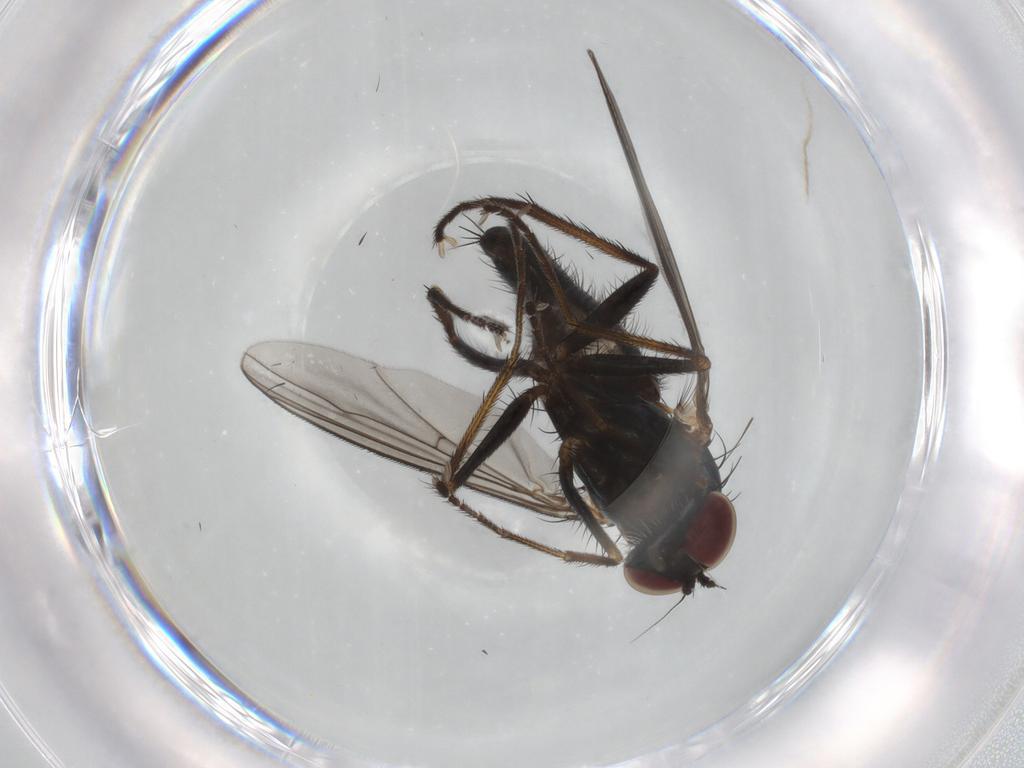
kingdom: Animalia
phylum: Arthropoda
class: Insecta
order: Diptera
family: Dolichopodidae
